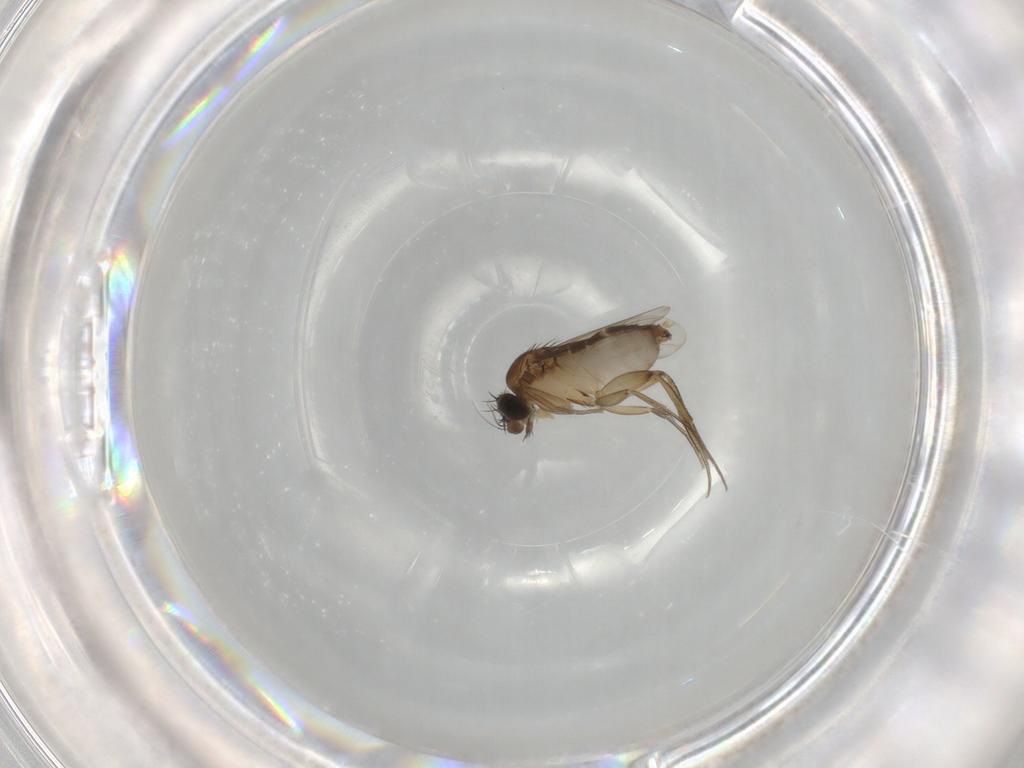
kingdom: Animalia
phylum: Arthropoda
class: Insecta
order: Diptera
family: Phoridae
